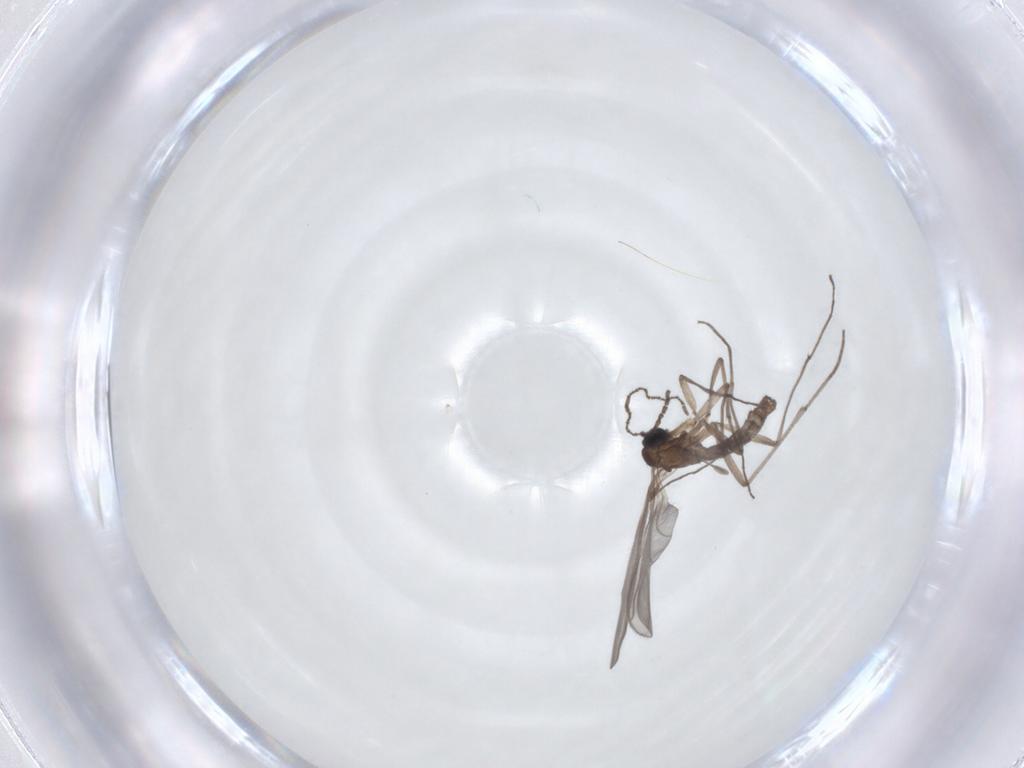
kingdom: Animalia
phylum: Arthropoda
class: Insecta
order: Diptera
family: Sciaridae
